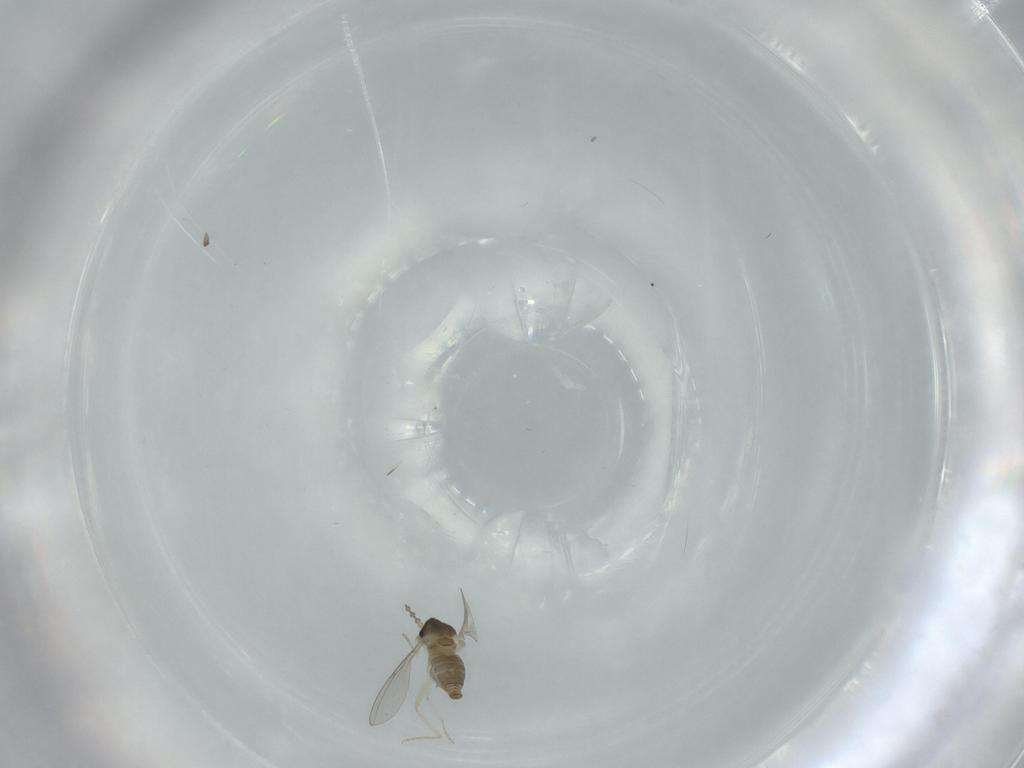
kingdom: Animalia
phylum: Arthropoda
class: Insecta
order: Diptera
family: Cecidomyiidae
